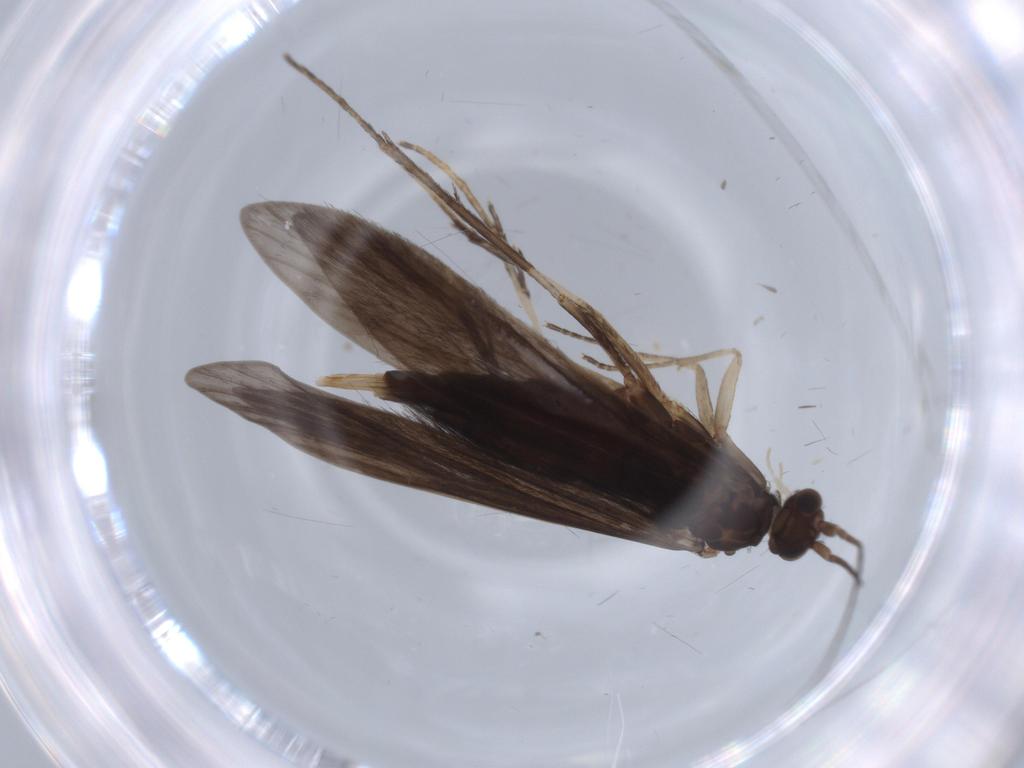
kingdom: Animalia
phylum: Arthropoda
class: Insecta
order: Trichoptera
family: Xiphocentronidae
